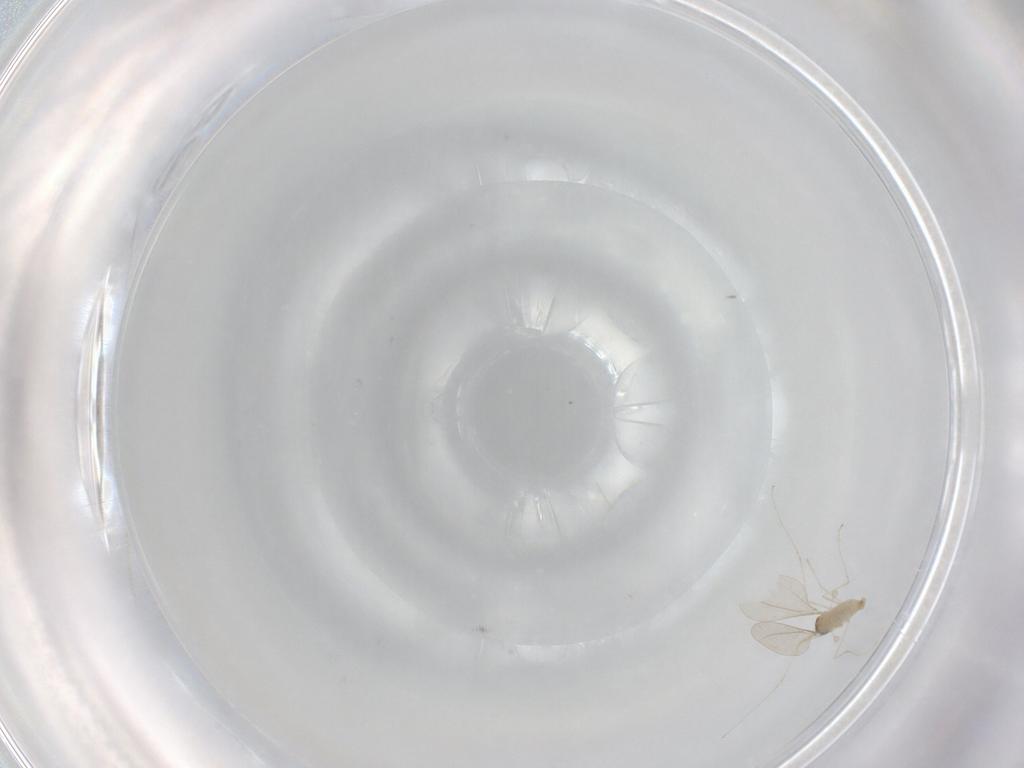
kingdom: Animalia
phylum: Arthropoda
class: Insecta
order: Diptera
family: Cecidomyiidae
